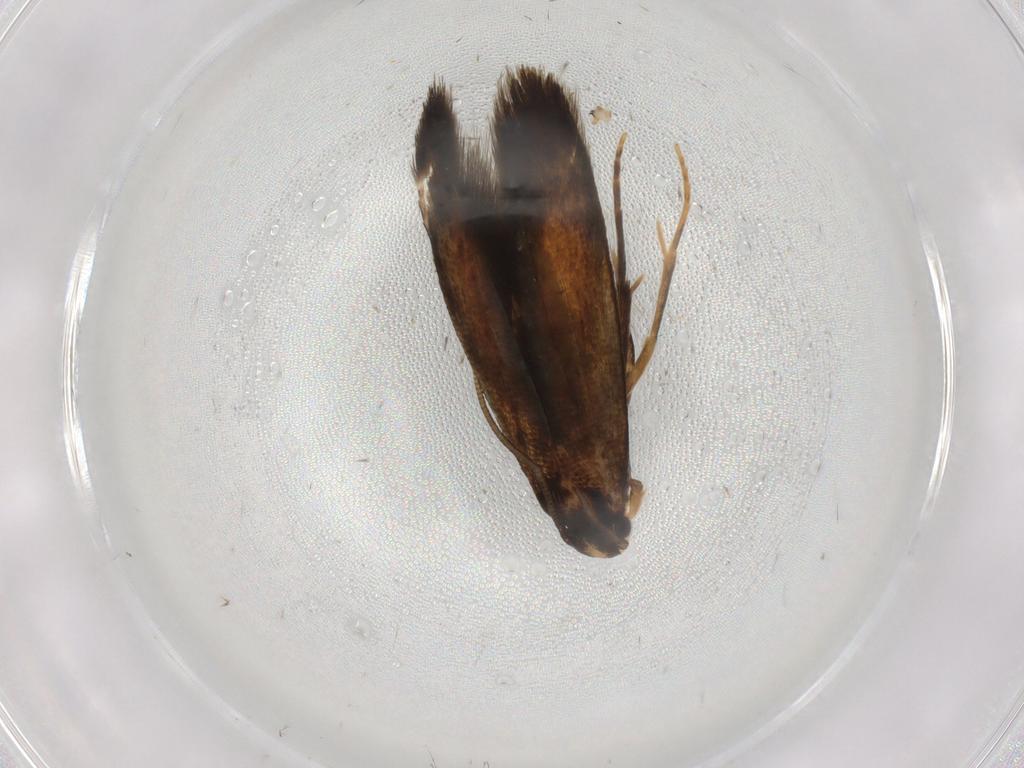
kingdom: Animalia
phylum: Arthropoda
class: Insecta
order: Lepidoptera
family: Tineidae
